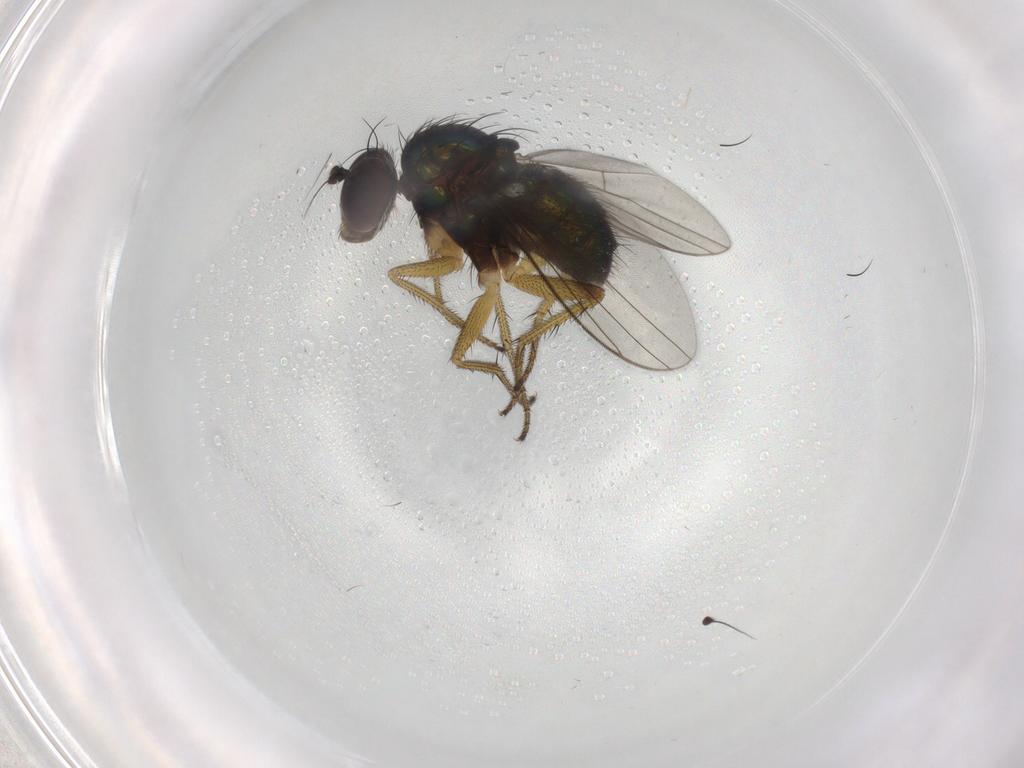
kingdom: Animalia
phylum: Arthropoda
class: Insecta
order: Diptera
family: Dolichopodidae
